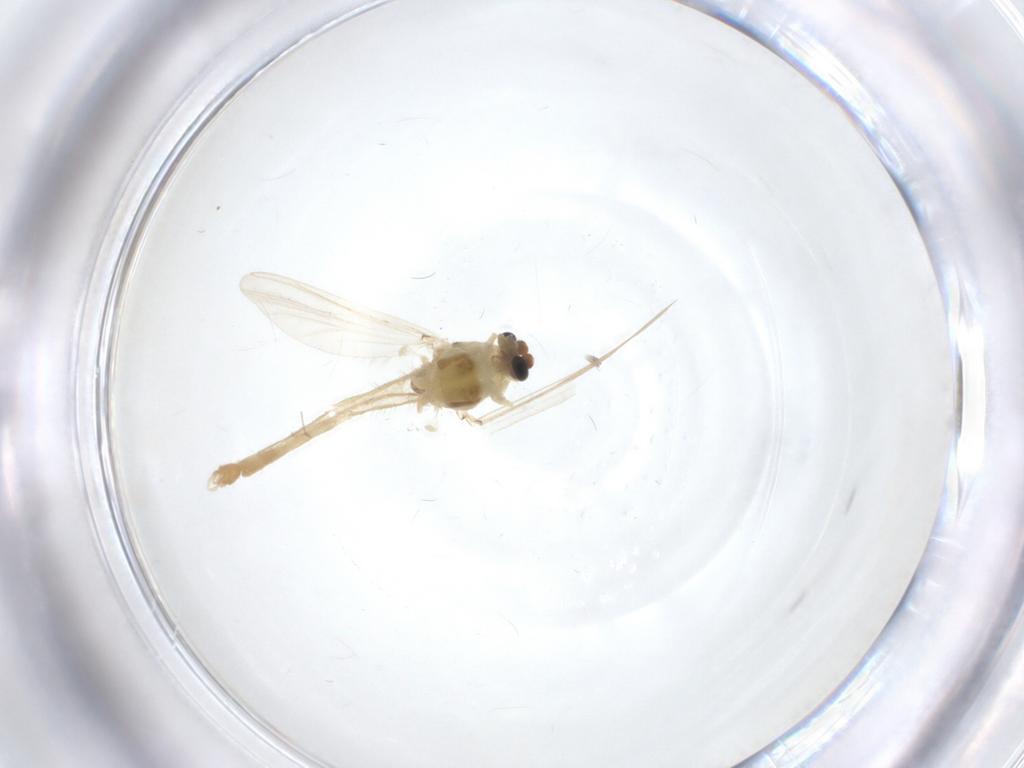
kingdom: Animalia
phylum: Arthropoda
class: Insecta
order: Diptera
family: Chironomidae
